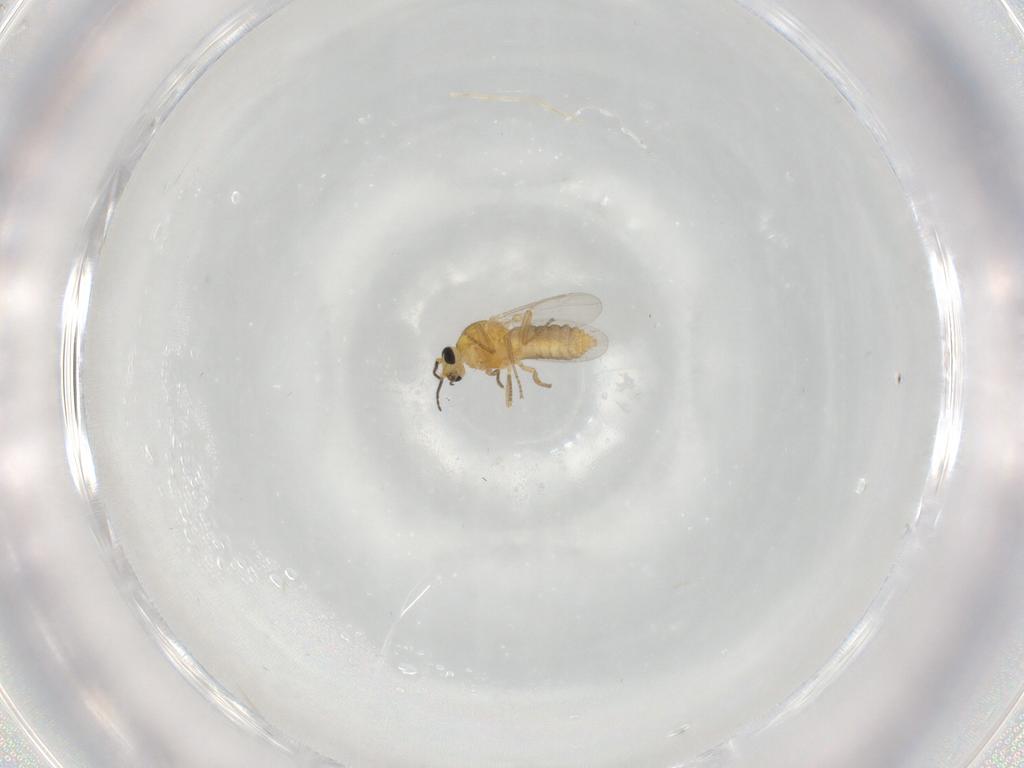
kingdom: Animalia
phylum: Arthropoda
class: Insecta
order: Diptera
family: Ceratopogonidae
